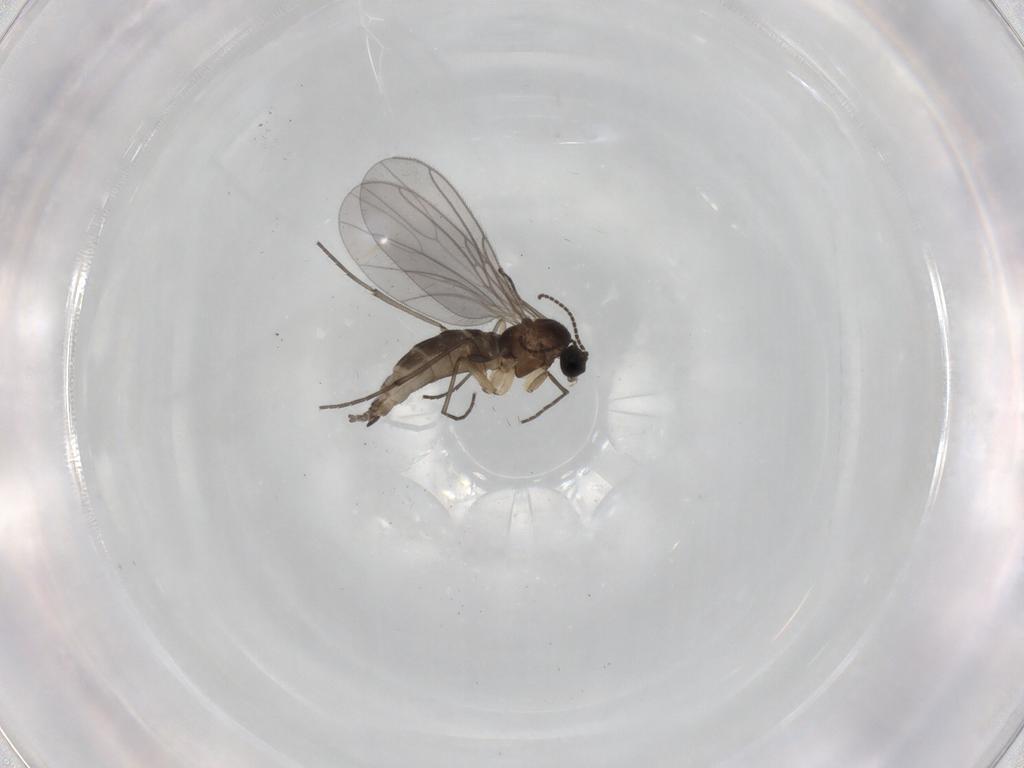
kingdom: Animalia
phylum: Arthropoda
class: Insecta
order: Diptera
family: Sciaridae
